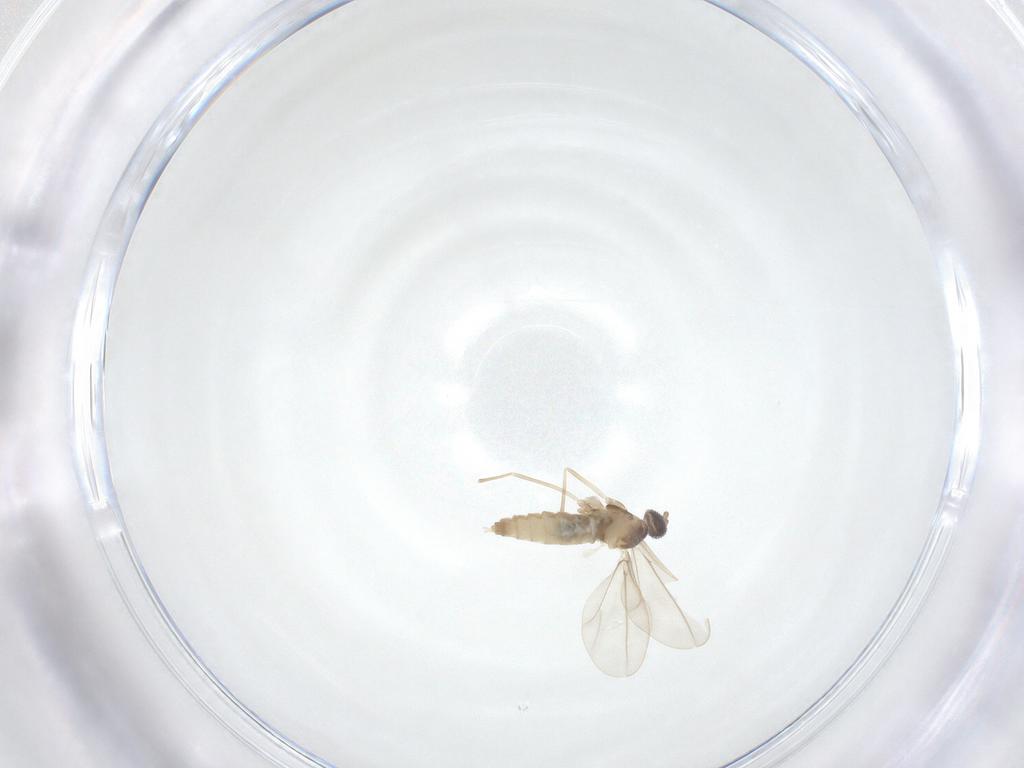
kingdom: Animalia
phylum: Arthropoda
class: Insecta
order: Diptera
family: Cecidomyiidae
